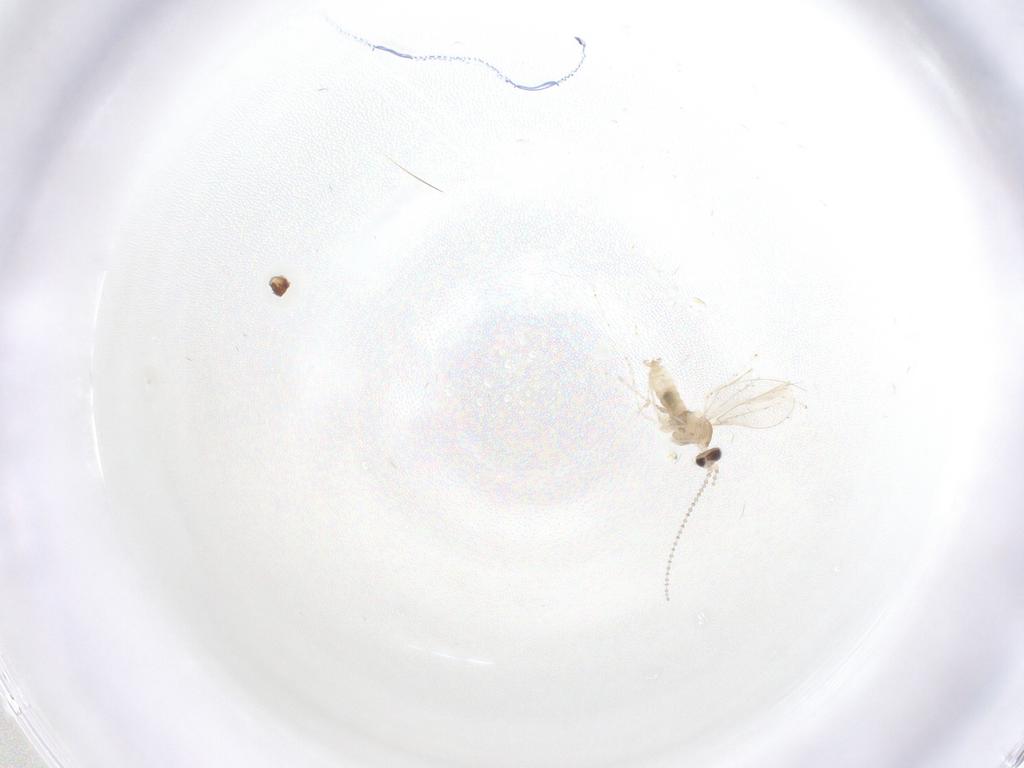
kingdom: Animalia
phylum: Arthropoda
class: Insecta
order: Diptera
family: Cecidomyiidae
